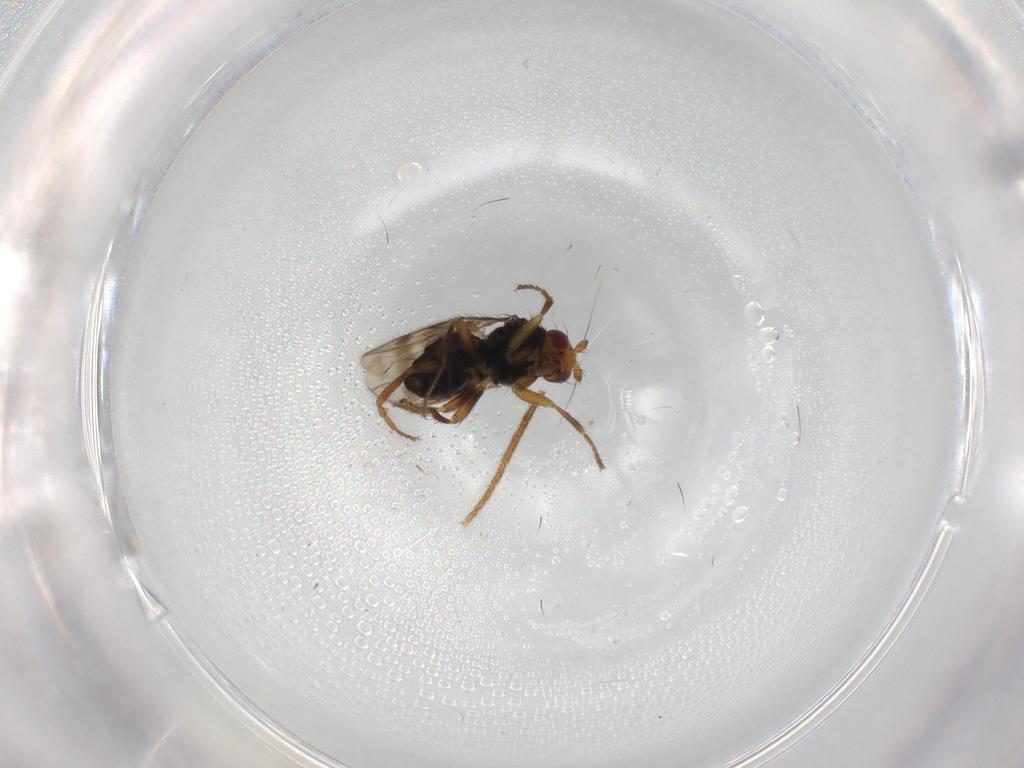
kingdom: Animalia
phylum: Arthropoda
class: Insecta
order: Diptera
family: Sphaeroceridae
